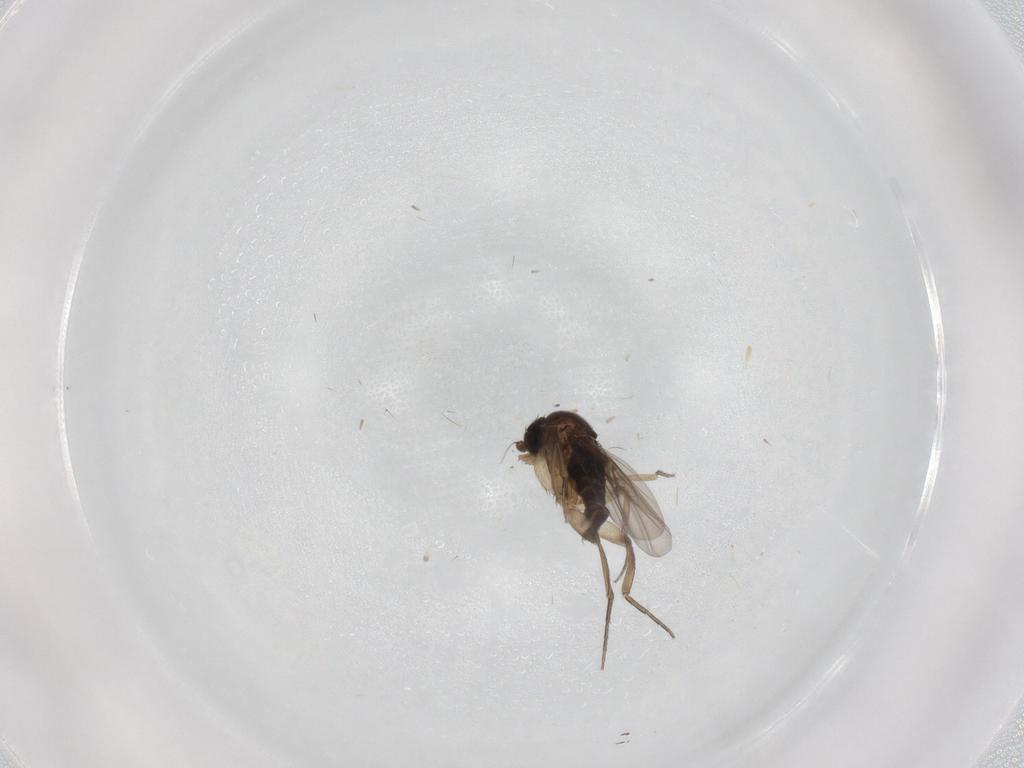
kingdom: Animalia
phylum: Arthropoda
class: Insecta
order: Diptera
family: Phoridae
